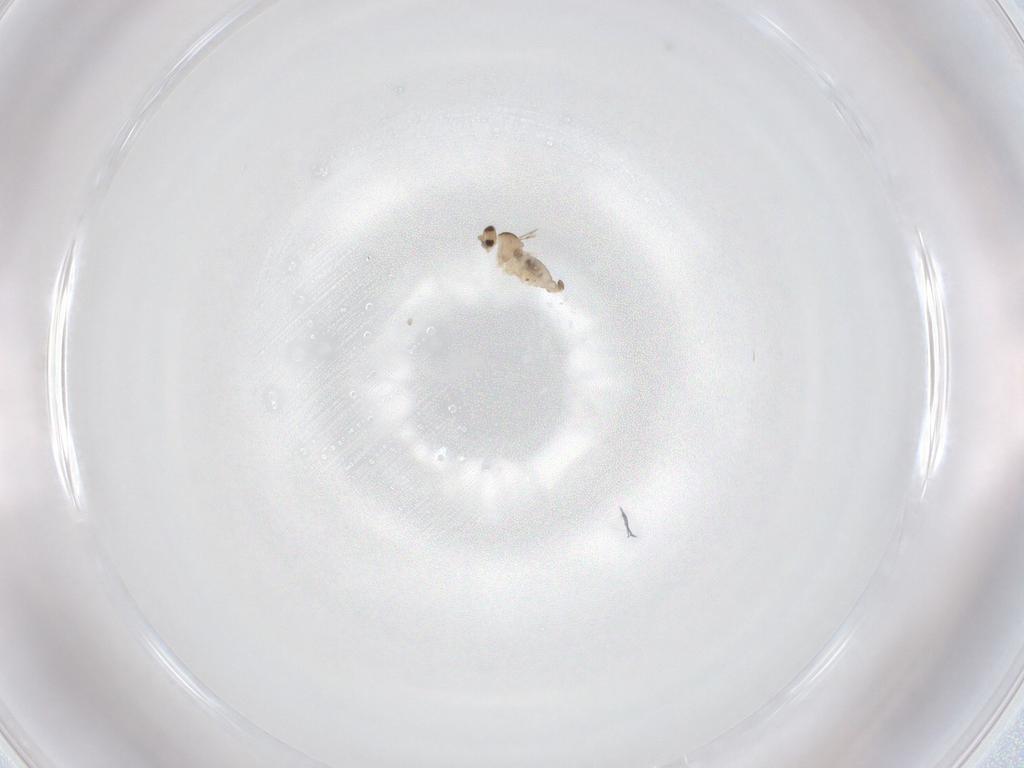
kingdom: Animalia
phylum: Arthropoda
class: Insecta
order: Diptera
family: Cecidomyiidae
